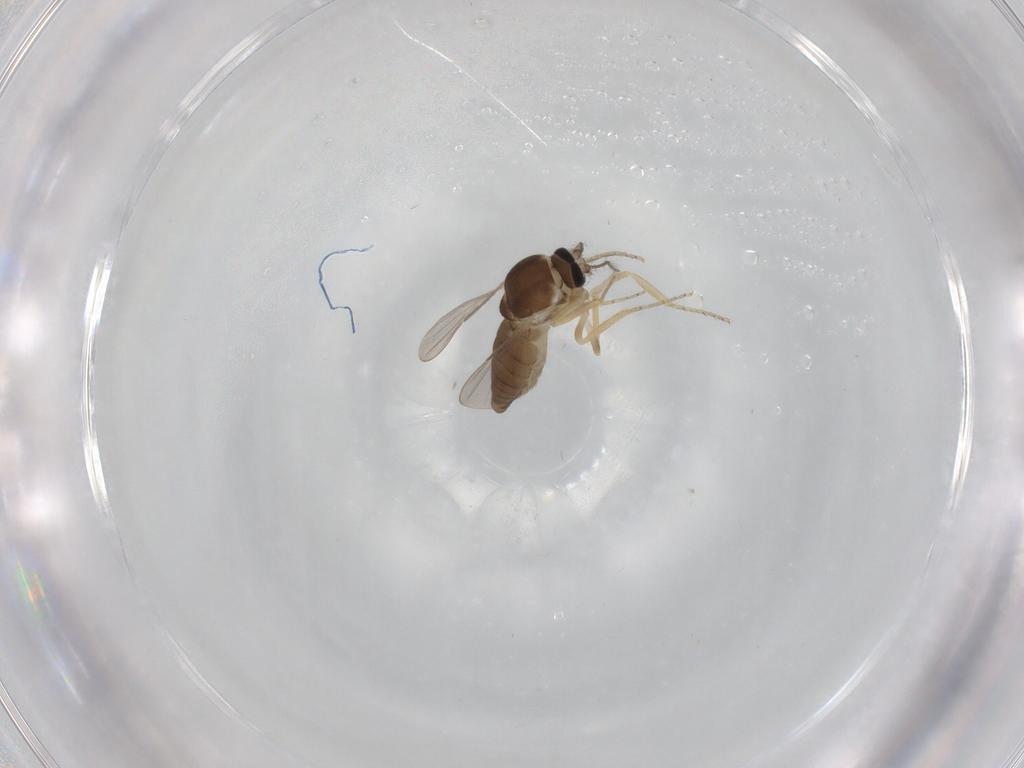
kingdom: Animalia
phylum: Arthropoda
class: Insecta
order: Diptera
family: Ceratopogonidae
